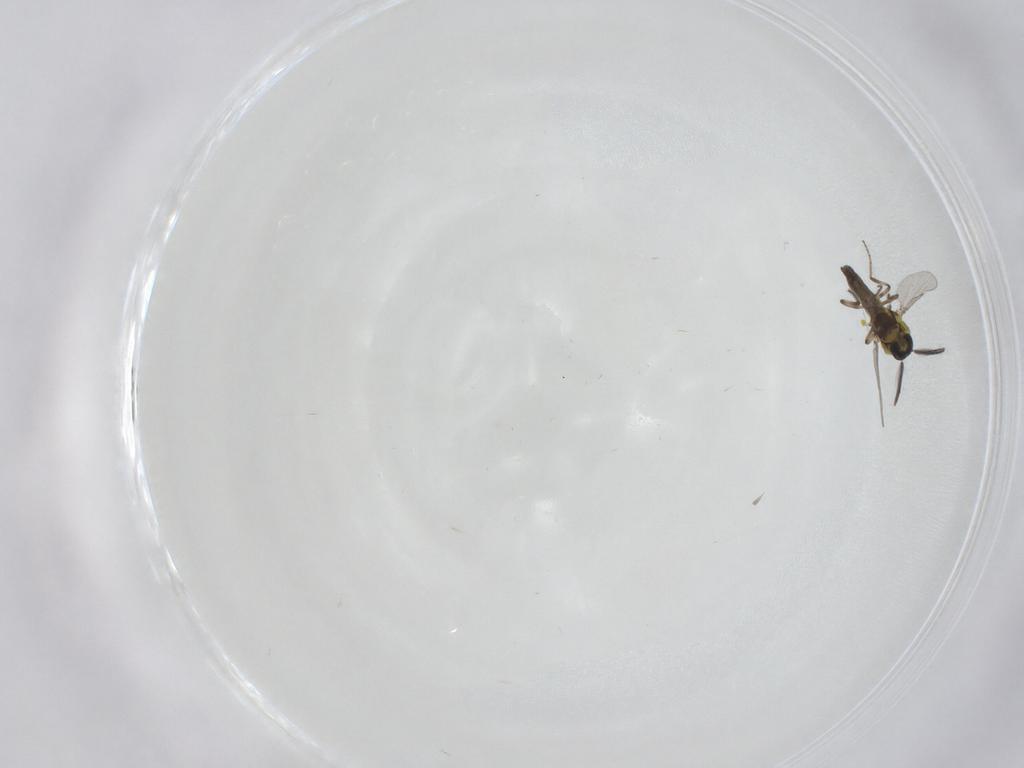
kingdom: Animalia
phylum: Arthropoda
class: Insecta
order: Diptera
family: Ceratopogonidae
